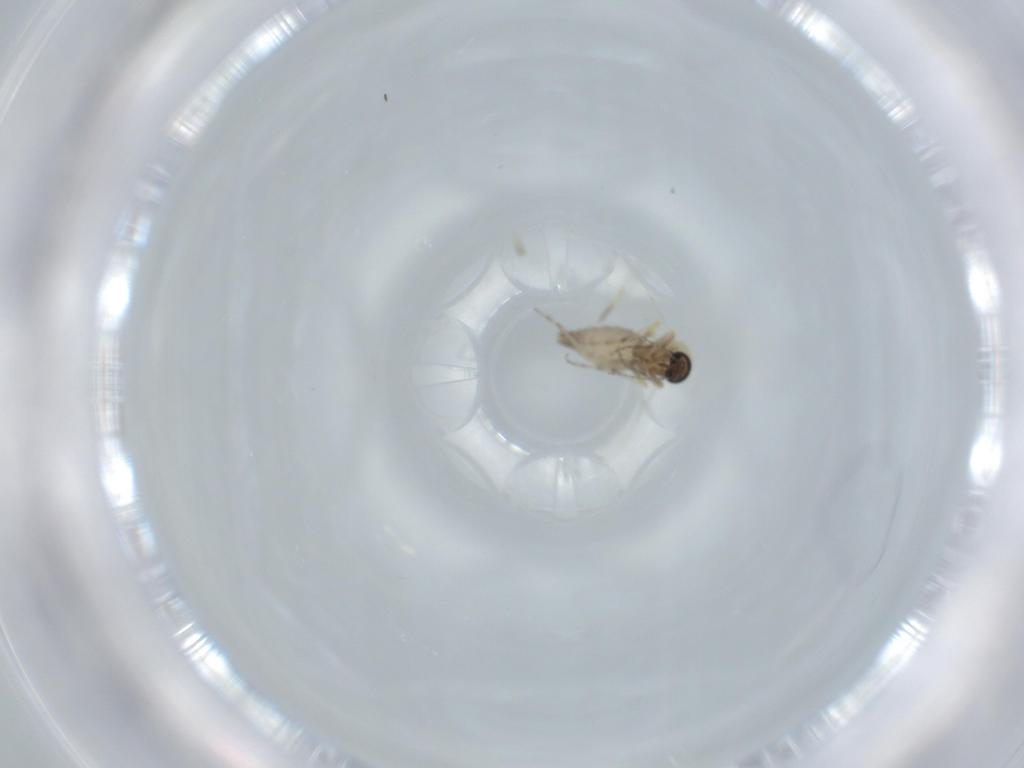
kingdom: Animalia
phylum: Arthropoda
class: Insecta
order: Diptera
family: Ceratopogonidae
